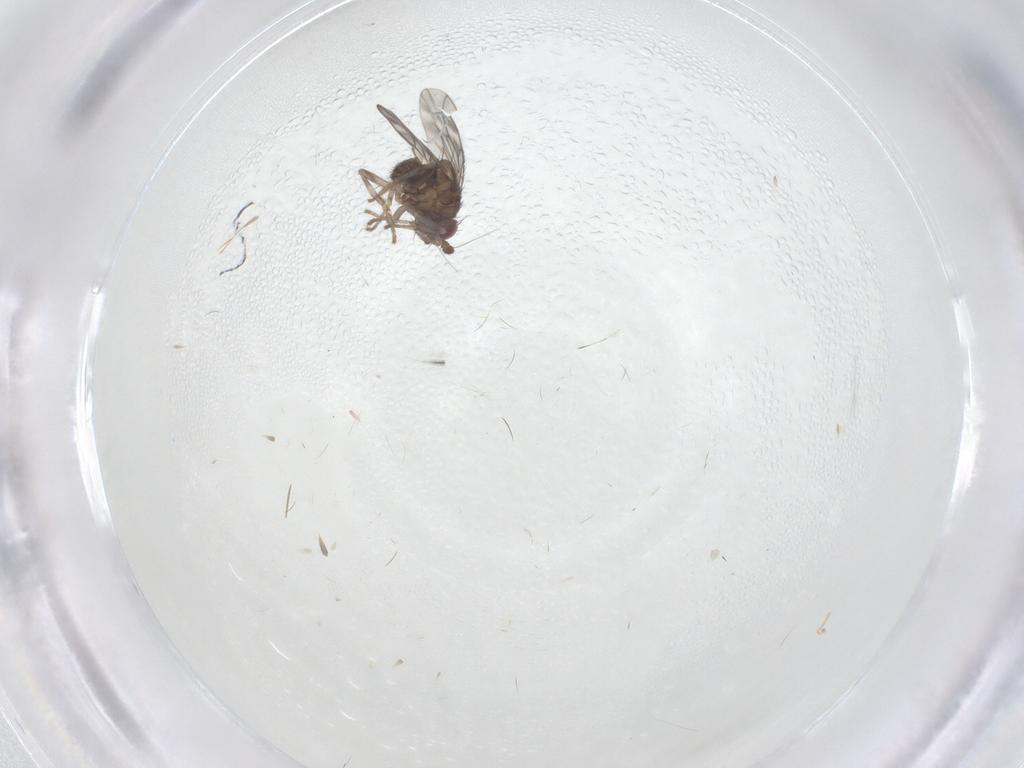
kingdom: Animalia
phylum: Arthropoda
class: Insecta
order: Diptera
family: Sphaeroceridae
